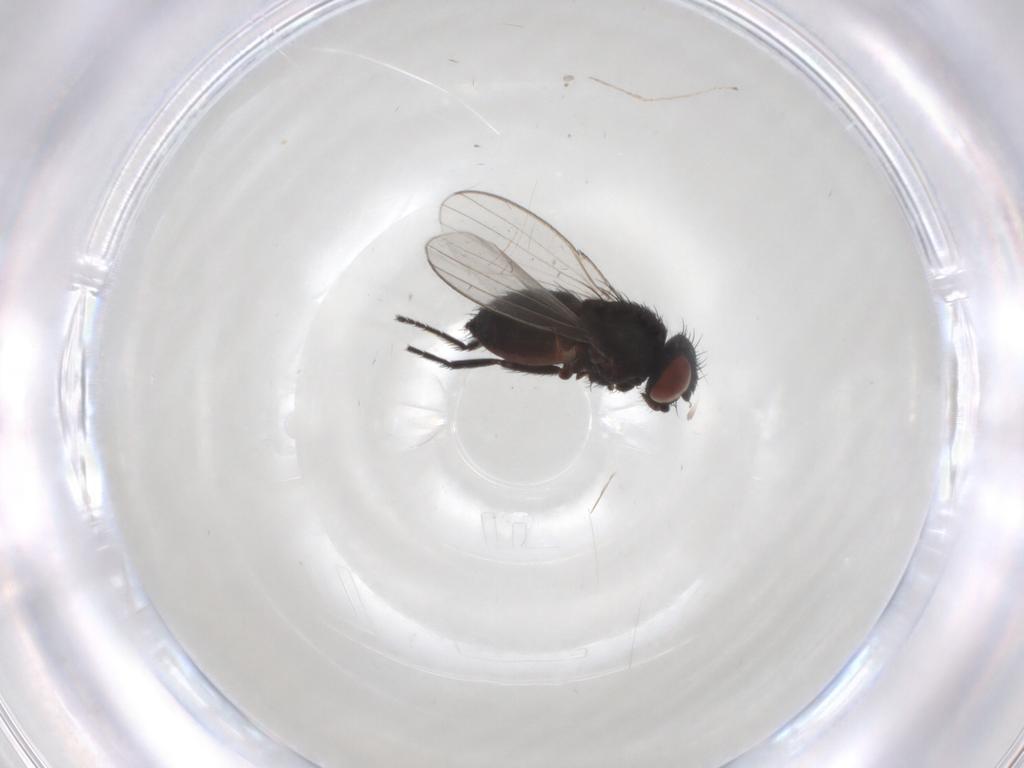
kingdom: Animalia
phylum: Arthropoda
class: Insecta
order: Diptera
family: Milichiidae
